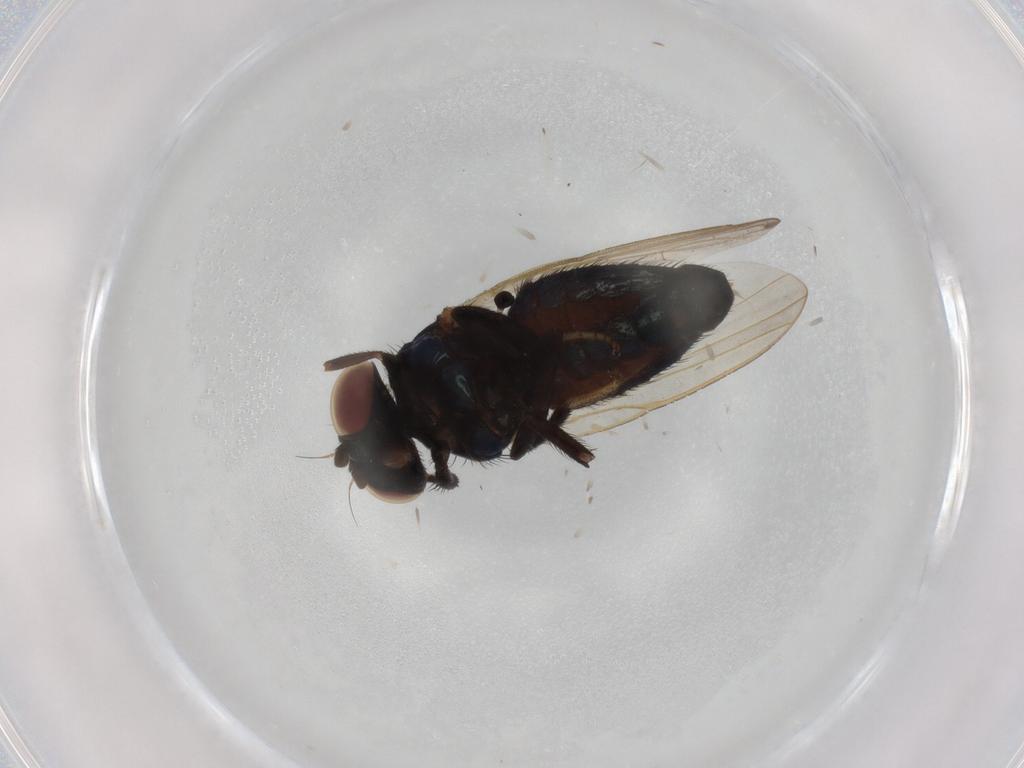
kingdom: Animalia
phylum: Arthropoda
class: Insecta
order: Diptera
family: Lonchaeidae
